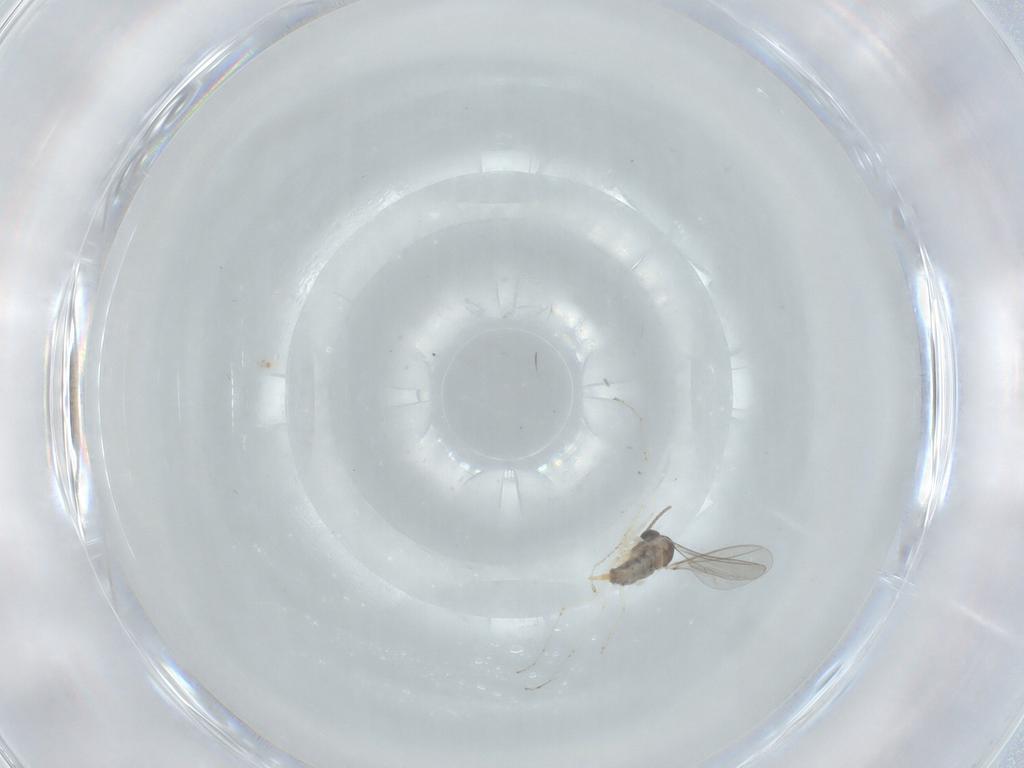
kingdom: Animalia
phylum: Arthropoda
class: Insecta
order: Diptera
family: Cecidomyiidae
